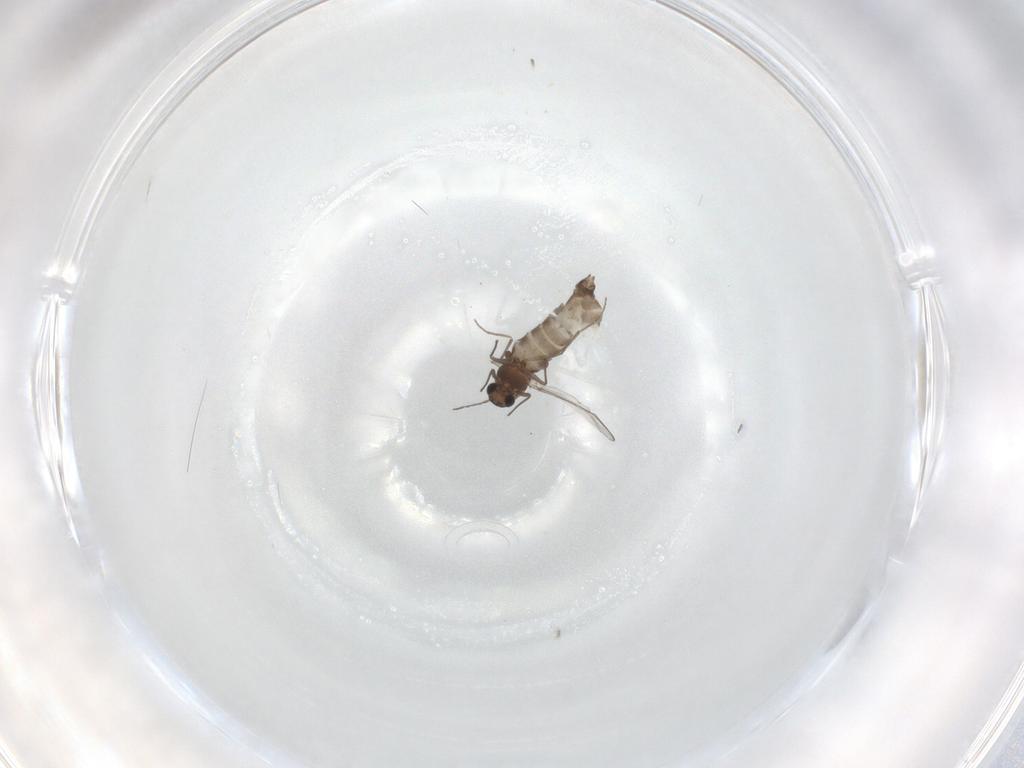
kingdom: Animalia
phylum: Arthropoda
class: Insecta
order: Diptera
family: Chironomidae
